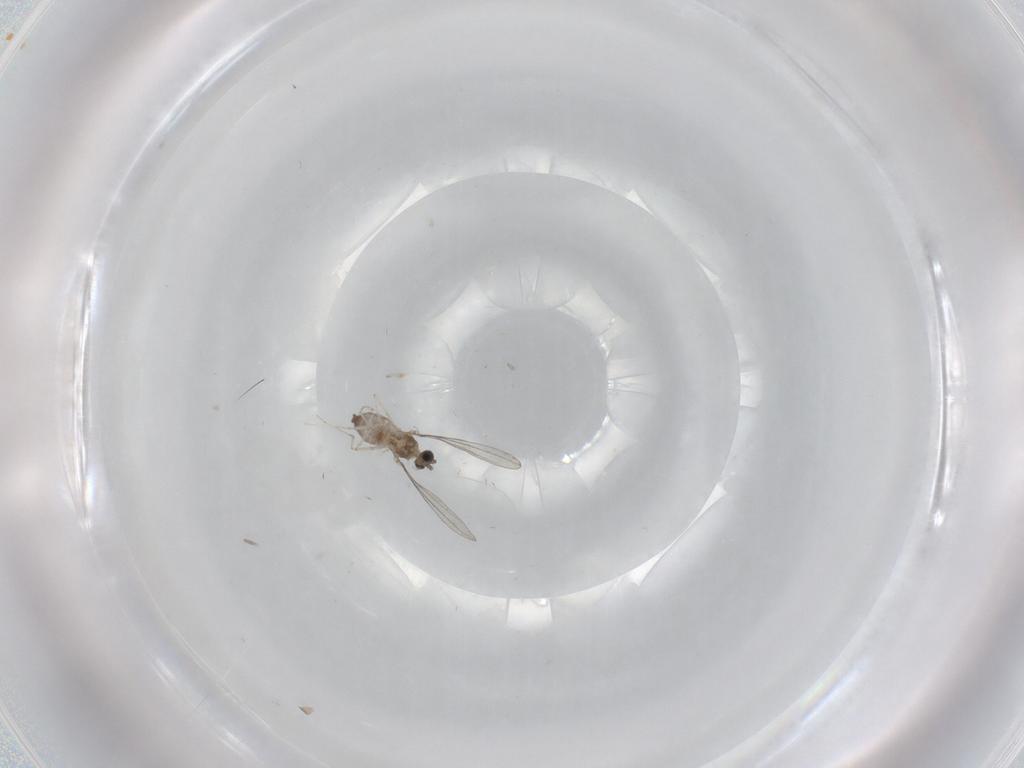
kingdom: Animalia
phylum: Arthropoda
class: Insecta
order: Diptera
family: Cecidomyiidae
